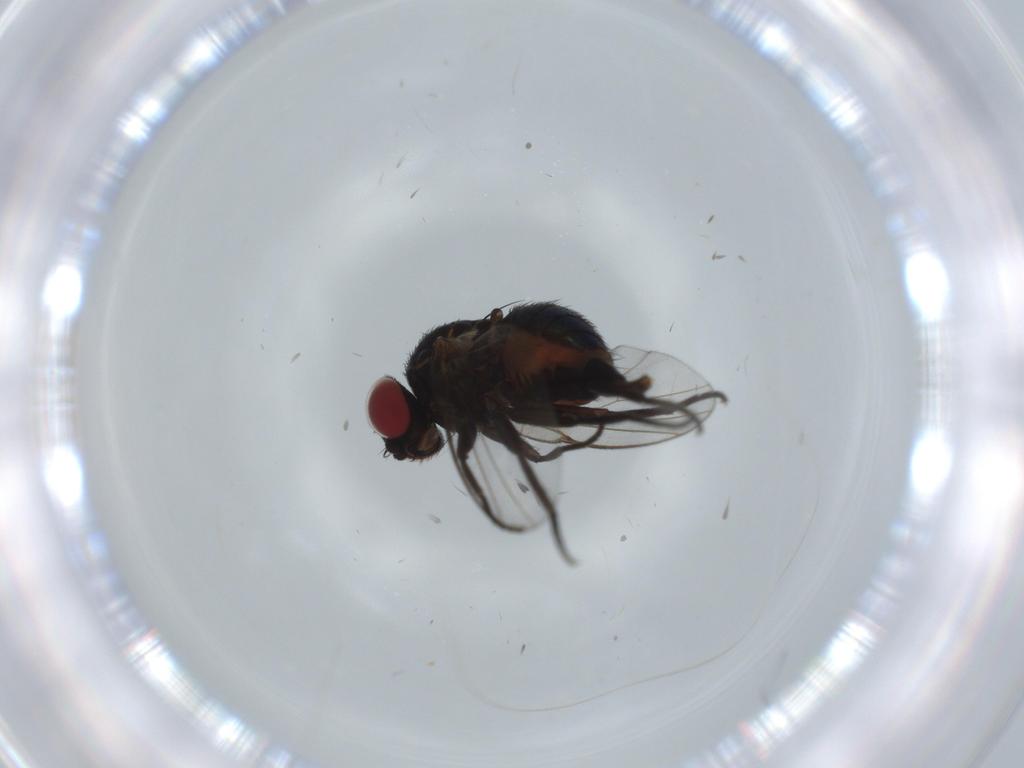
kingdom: Animalia
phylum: Arthropoda
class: Insecta
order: Diptera
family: Agromyzidae
